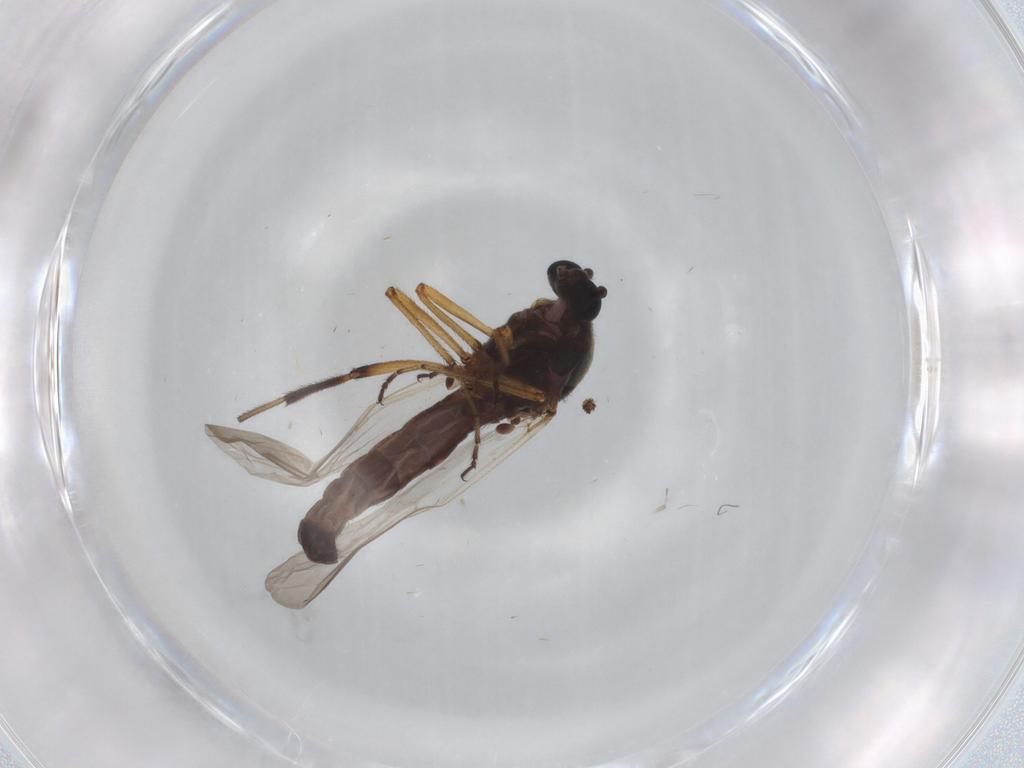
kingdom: Animalia
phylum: Arthropoda
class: Insecta
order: Diptera
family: Sciaridae
